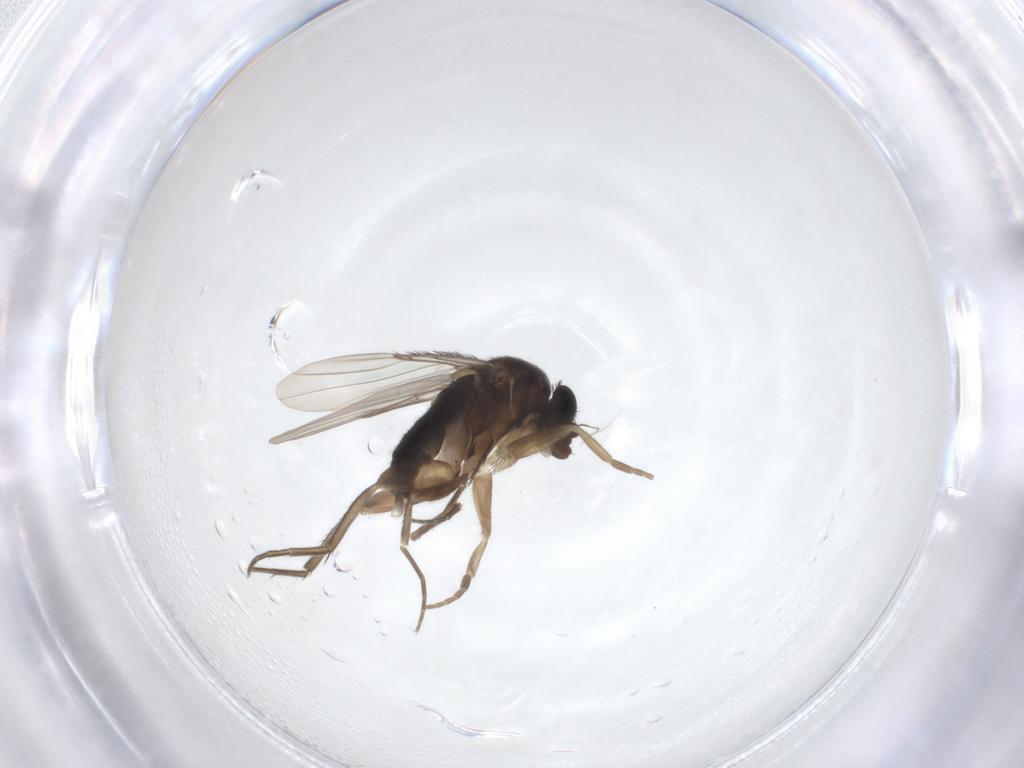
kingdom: Animalia
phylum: Arthropoda
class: Insecta
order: Diptera
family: Phoridae
